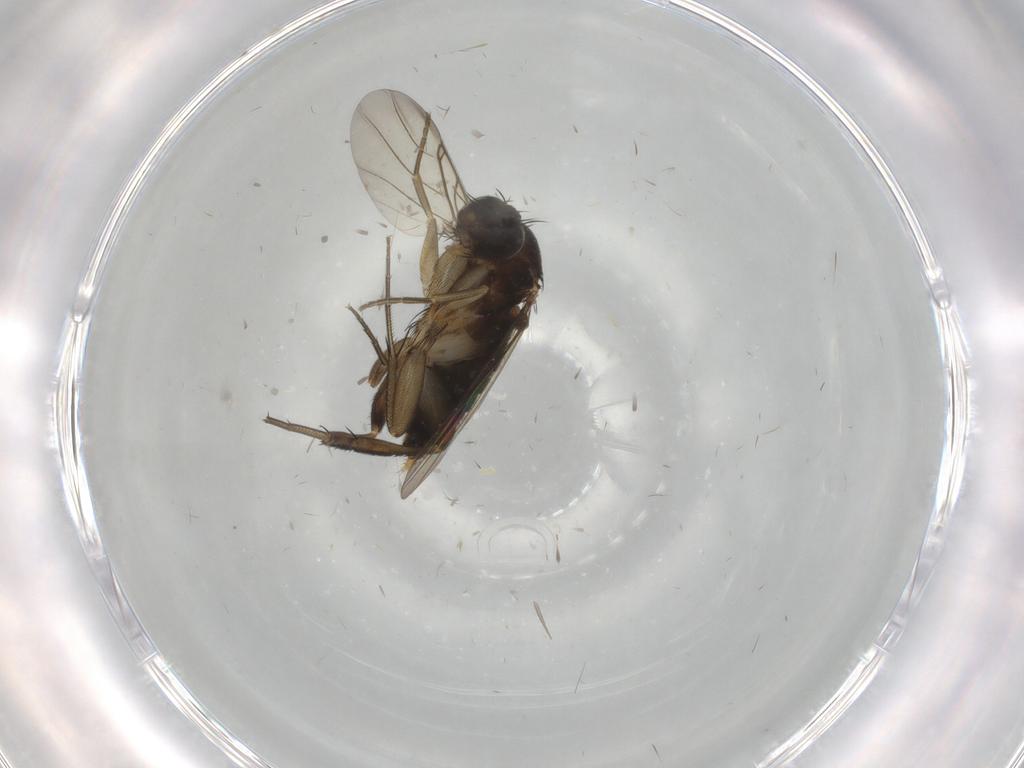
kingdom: Animalia
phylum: Arthropoda
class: Insecta
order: Diptera
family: Phoridae
